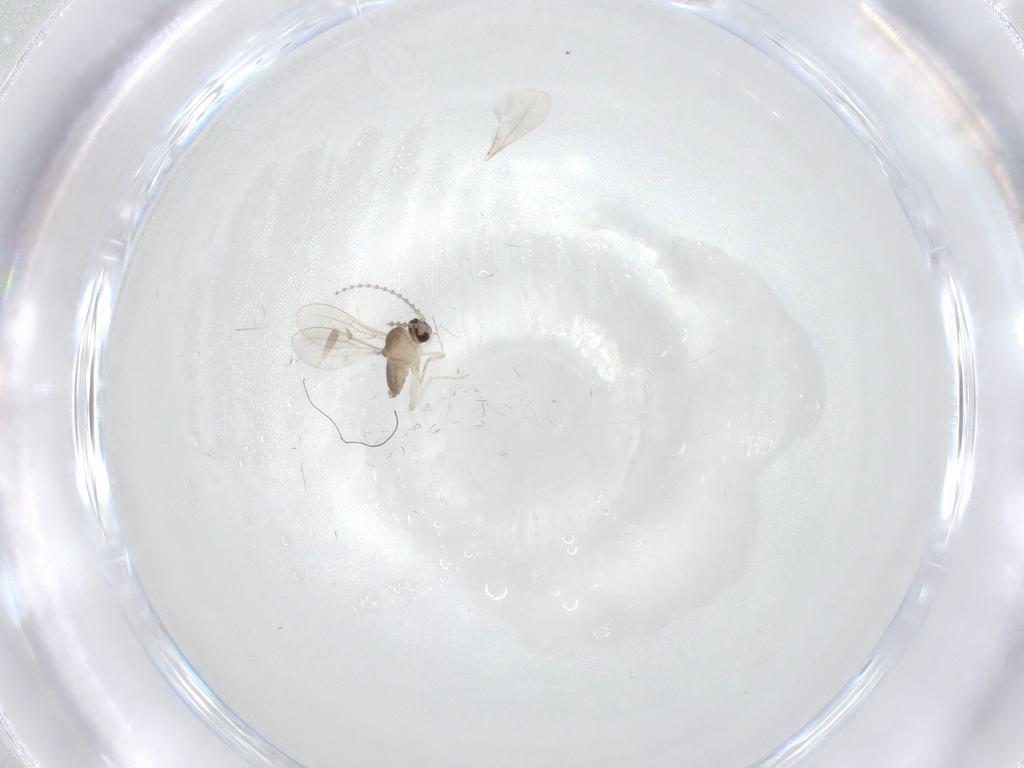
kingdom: Animalia
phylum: Arthropoda
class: Insecta
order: Diptera
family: Cecidomyiidae
